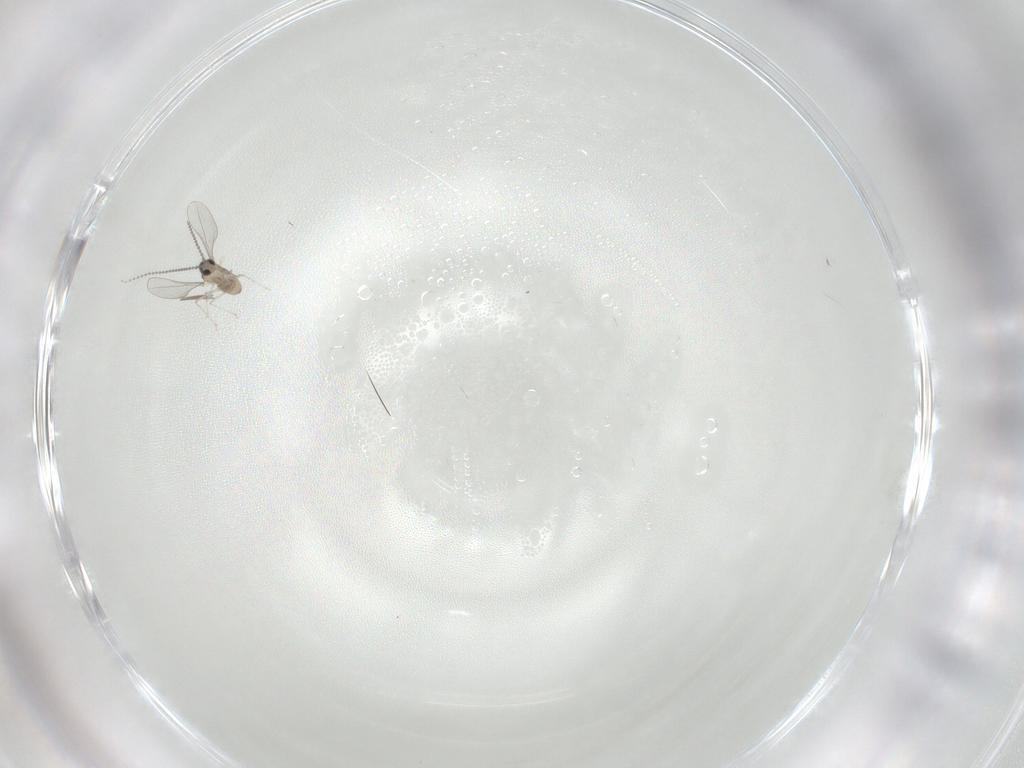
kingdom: Animalia
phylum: Arthropoda
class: Insecta
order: Diptera
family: Cecidomyiidae
